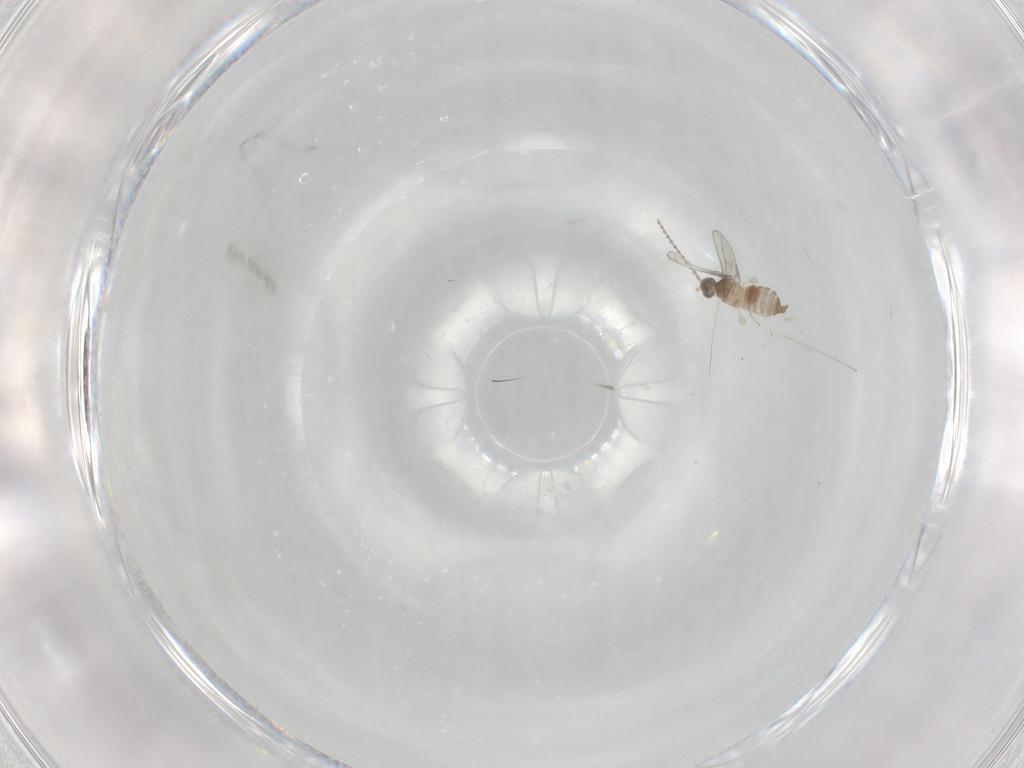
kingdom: Animalia
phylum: Arthropoda
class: Insecta
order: Diptera
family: Cecidomyiidae
